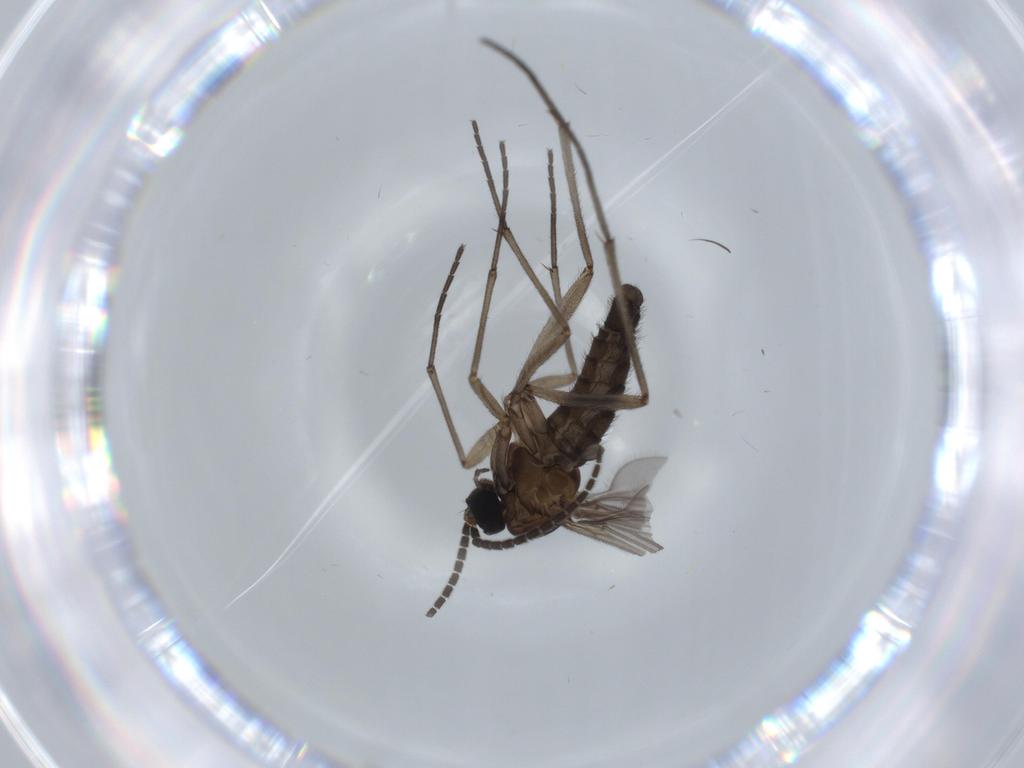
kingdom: Animalia
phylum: Arthropoda
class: Insecta
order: Diptera
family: Sciaridae
